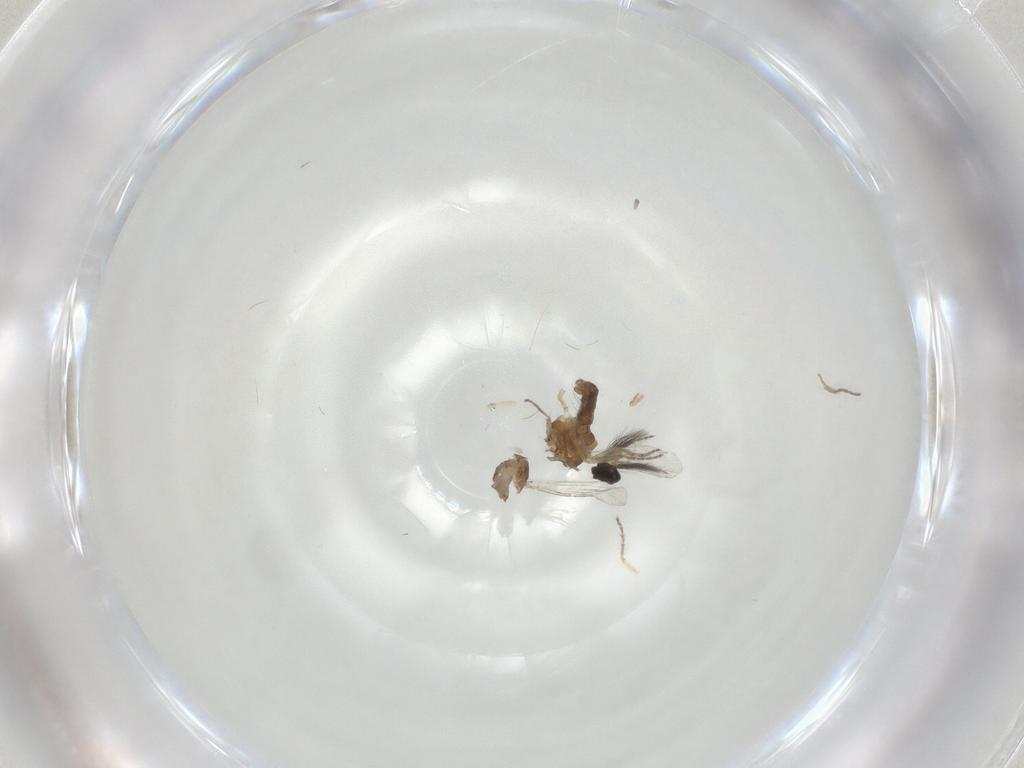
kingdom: Animalia
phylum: Arthropoda
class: Insecta
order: Diptera
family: Ceratopogonidae
